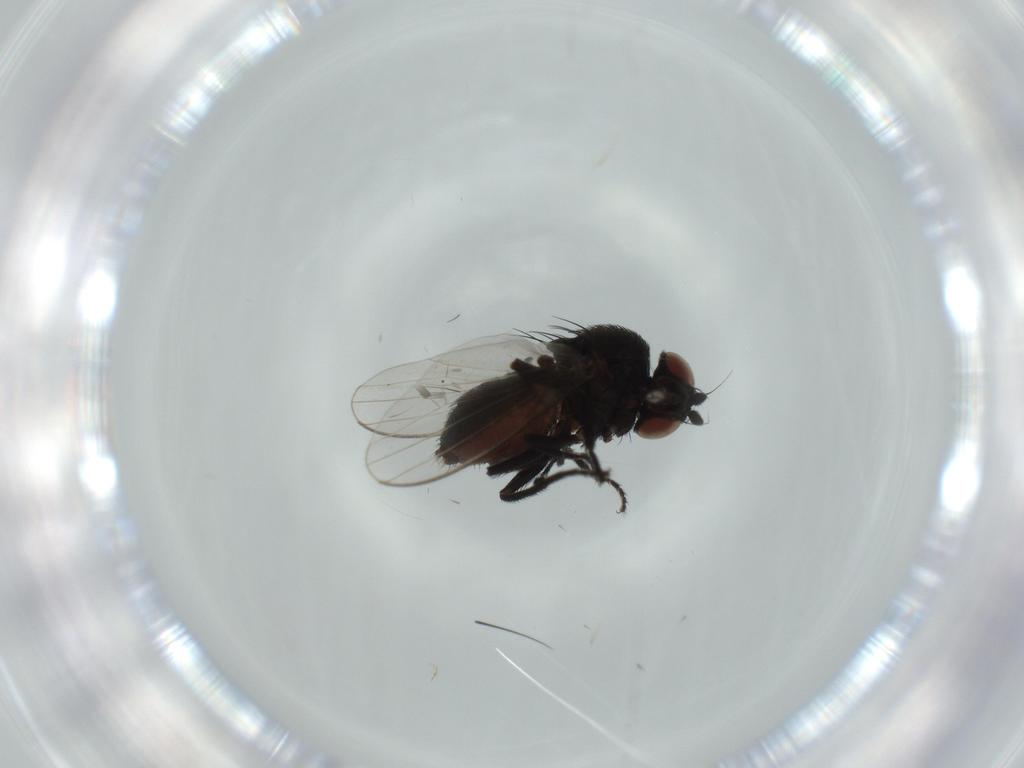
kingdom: Animalia
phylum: Arthropoda
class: Insecta
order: Diptera
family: Milichiidae
